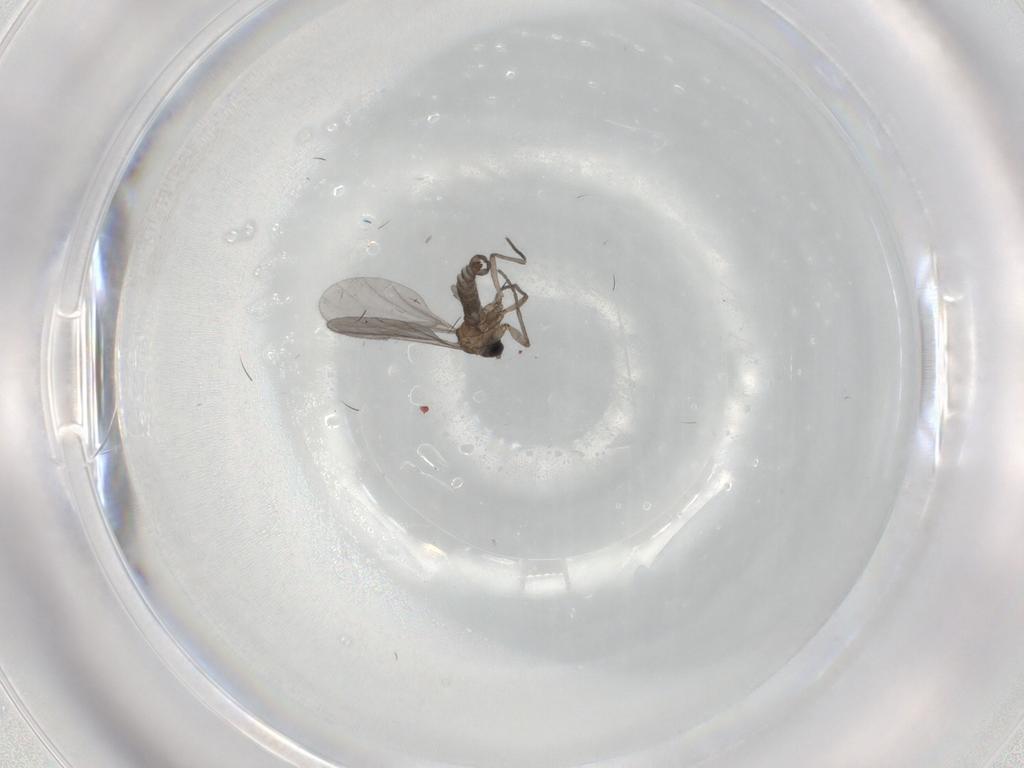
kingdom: Animalia
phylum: Arthropoda
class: Insecta
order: Diptera
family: Sciaridae
